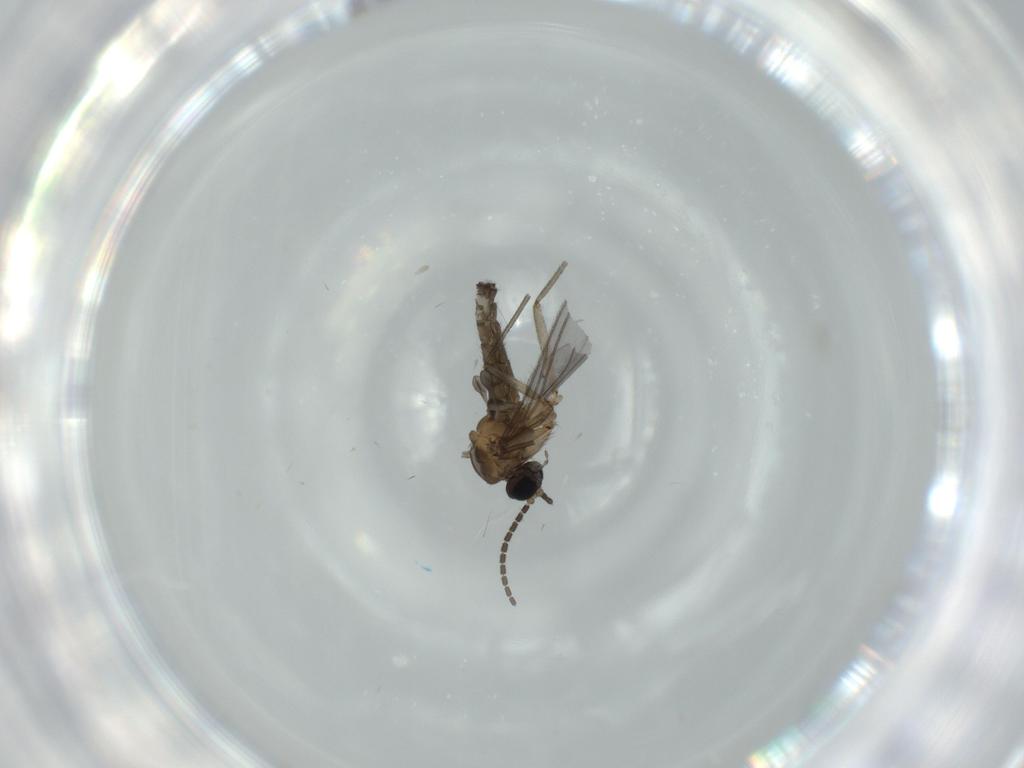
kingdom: Animalia
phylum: Arthropoda
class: Insecta
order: Diptera
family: Sciaridae
